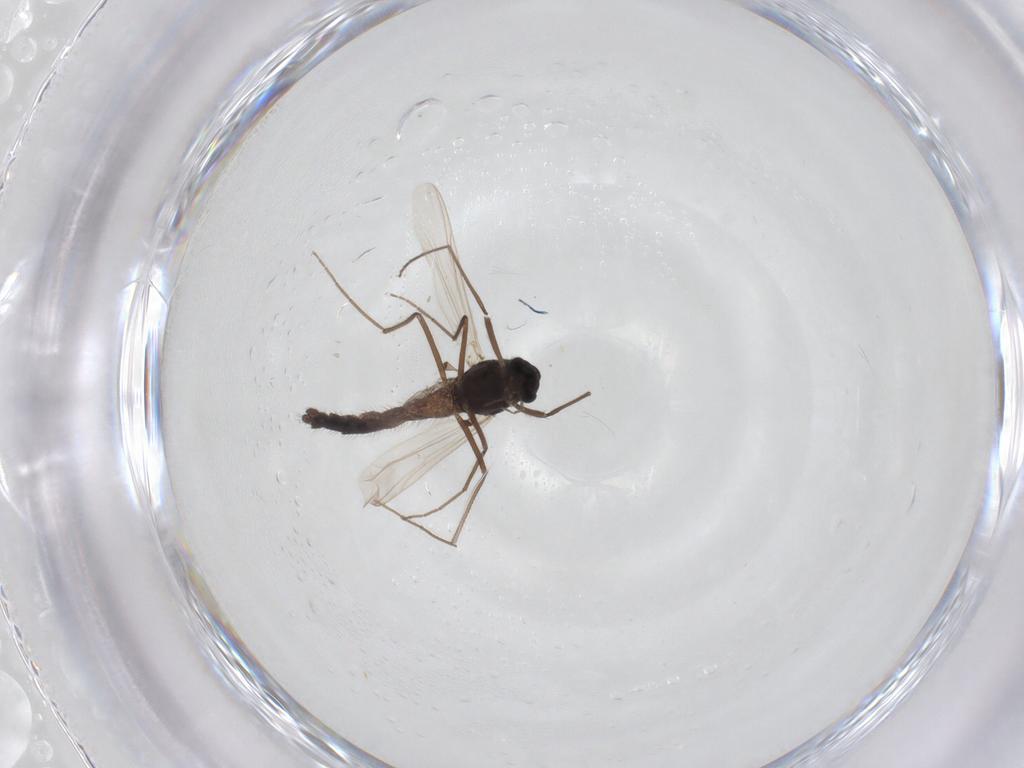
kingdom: Animalia
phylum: Arthropoda
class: Insecta
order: Diptera
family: Chironomidae
